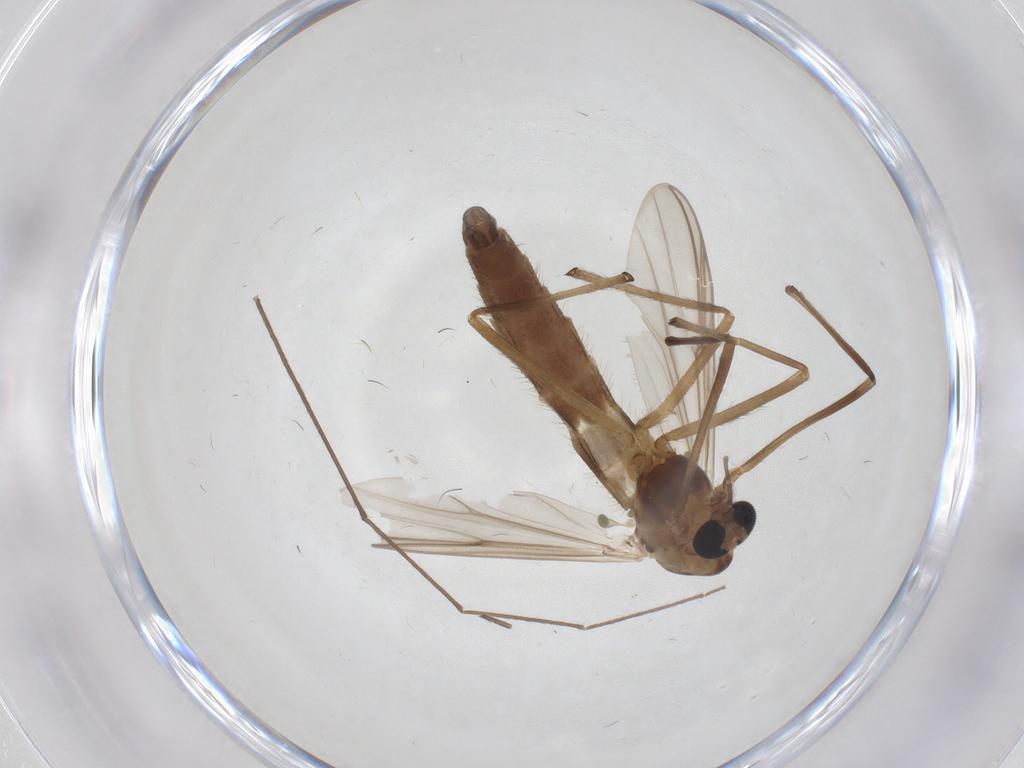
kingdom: Animalia
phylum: Arthropoda
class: Insecta
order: Diptera
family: Chironomidae
